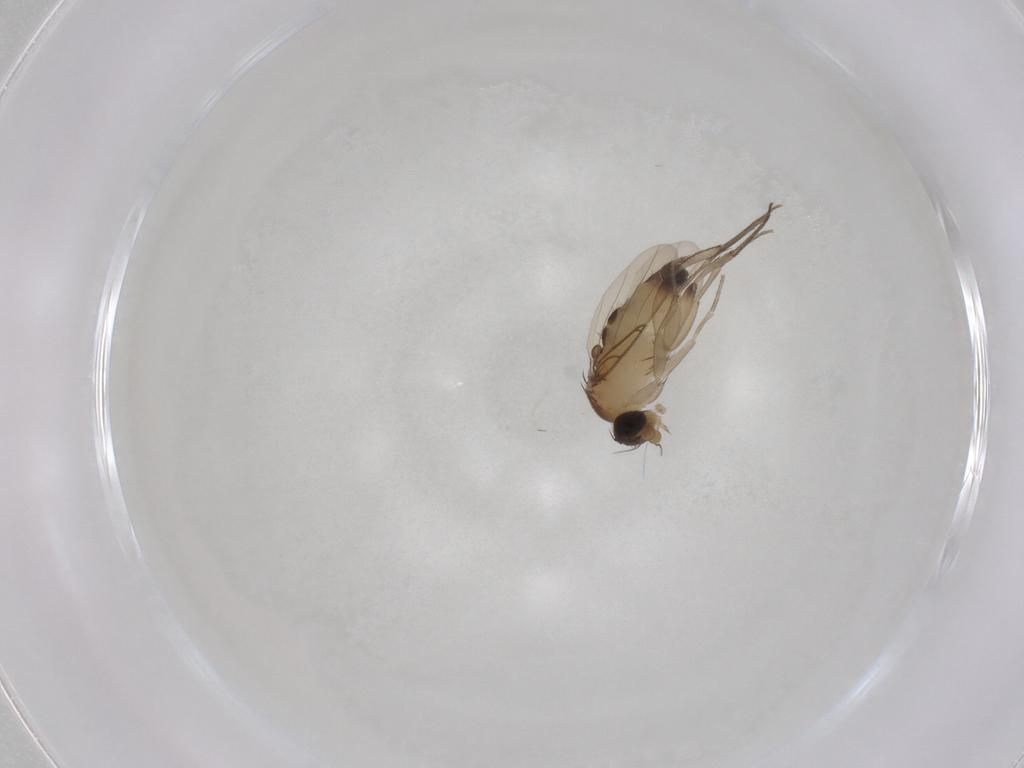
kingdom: Animalia
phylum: Arthropoda
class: Insecta
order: Diptera
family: Phoridae
